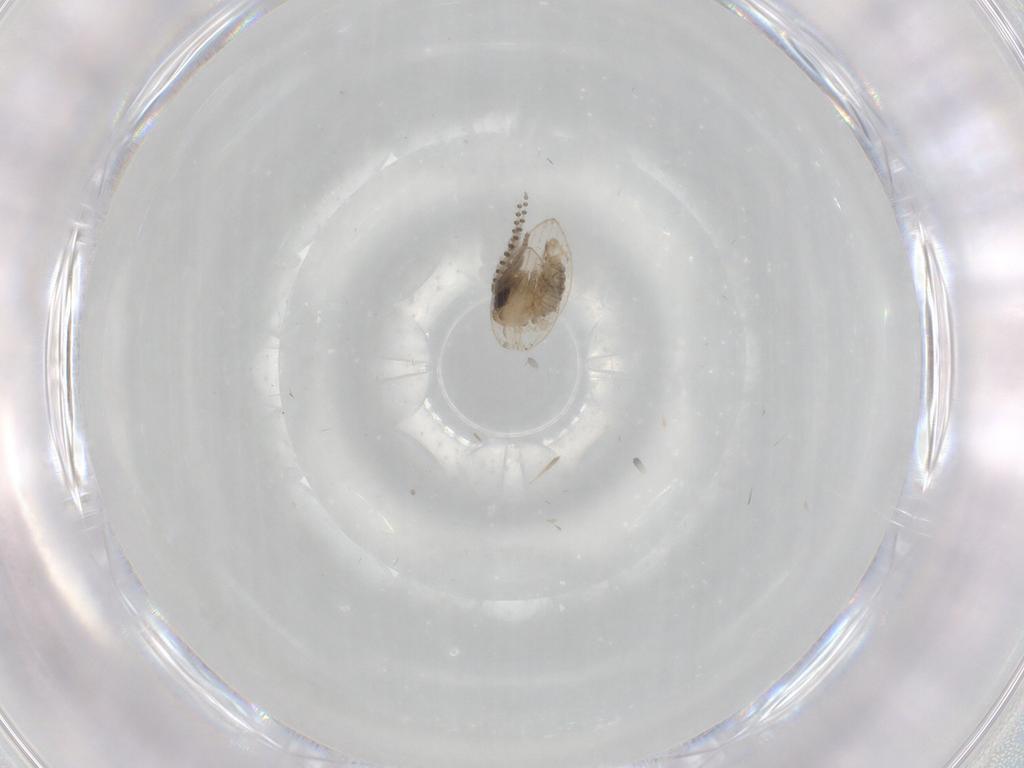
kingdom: Animalia
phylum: Arthropoda
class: Insecta
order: Diptera
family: Psychodidae
